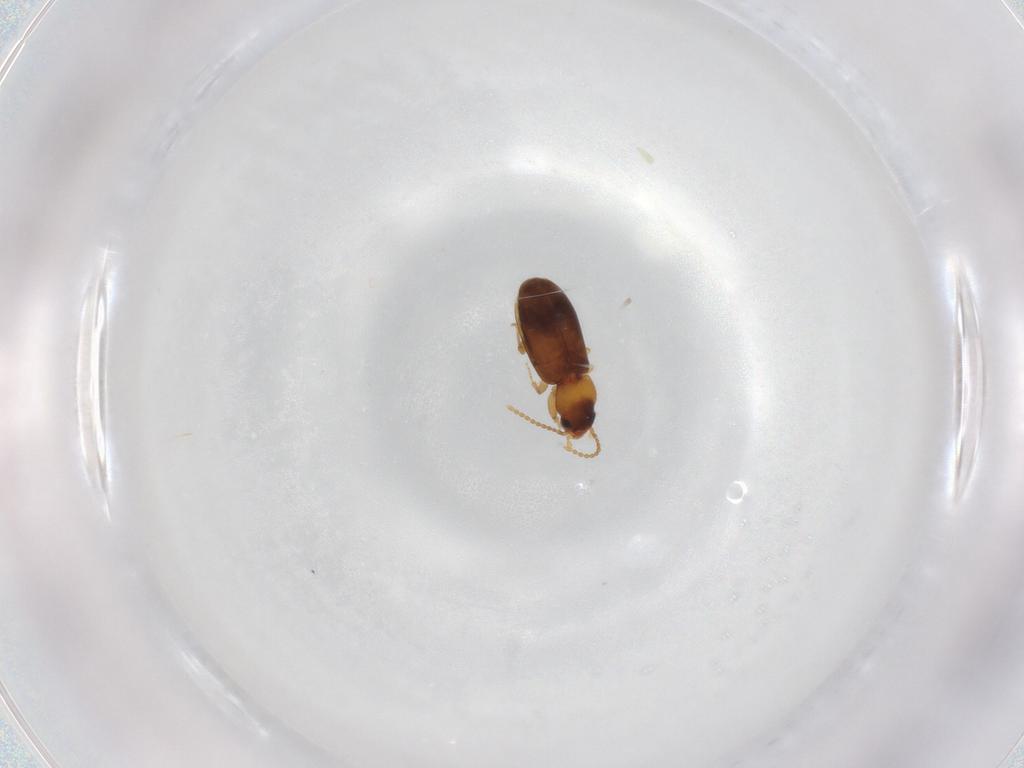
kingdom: Animalia
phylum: Arthropoda
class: Insecta
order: Coleoptera
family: Carabidae
